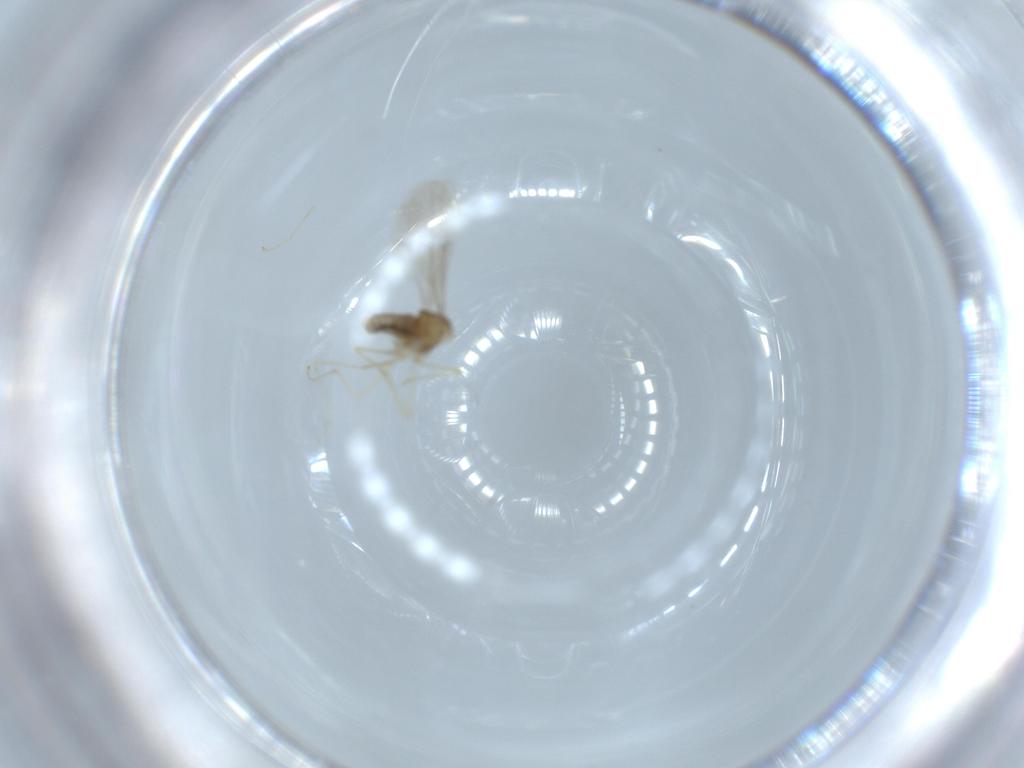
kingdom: Animalia
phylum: Arthropoda
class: Insecta
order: Diptera
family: Cecidomyiidae
